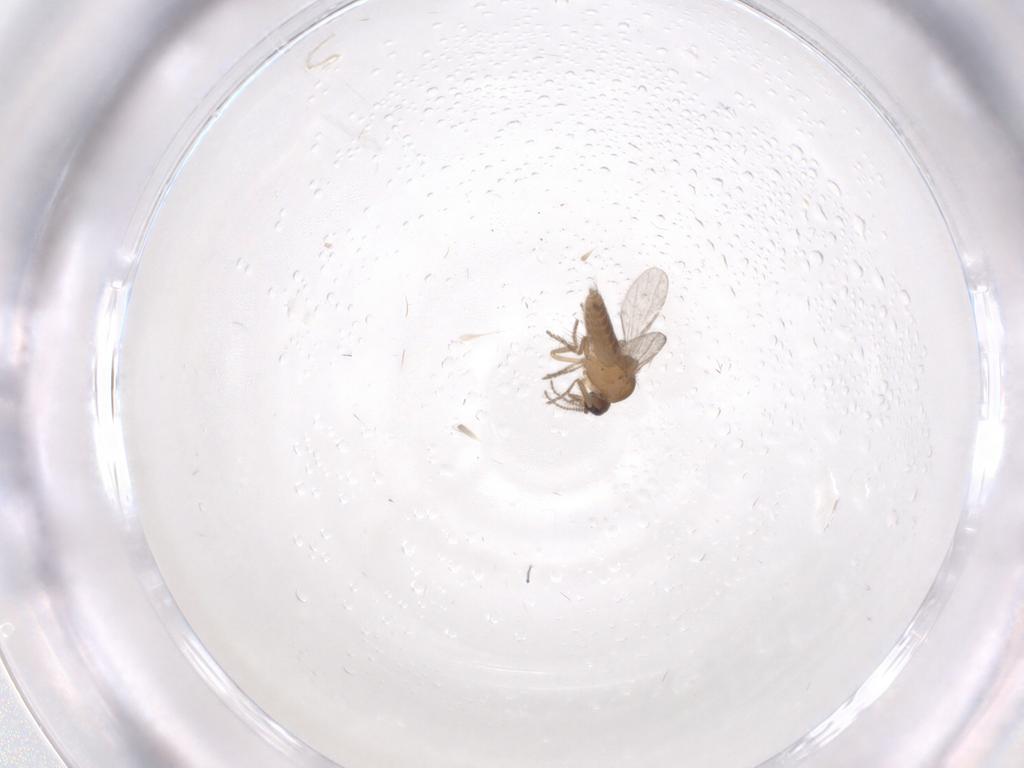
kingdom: Animalia
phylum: Arthropoda
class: Insecta
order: Diptera
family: Ceratopogonidae
